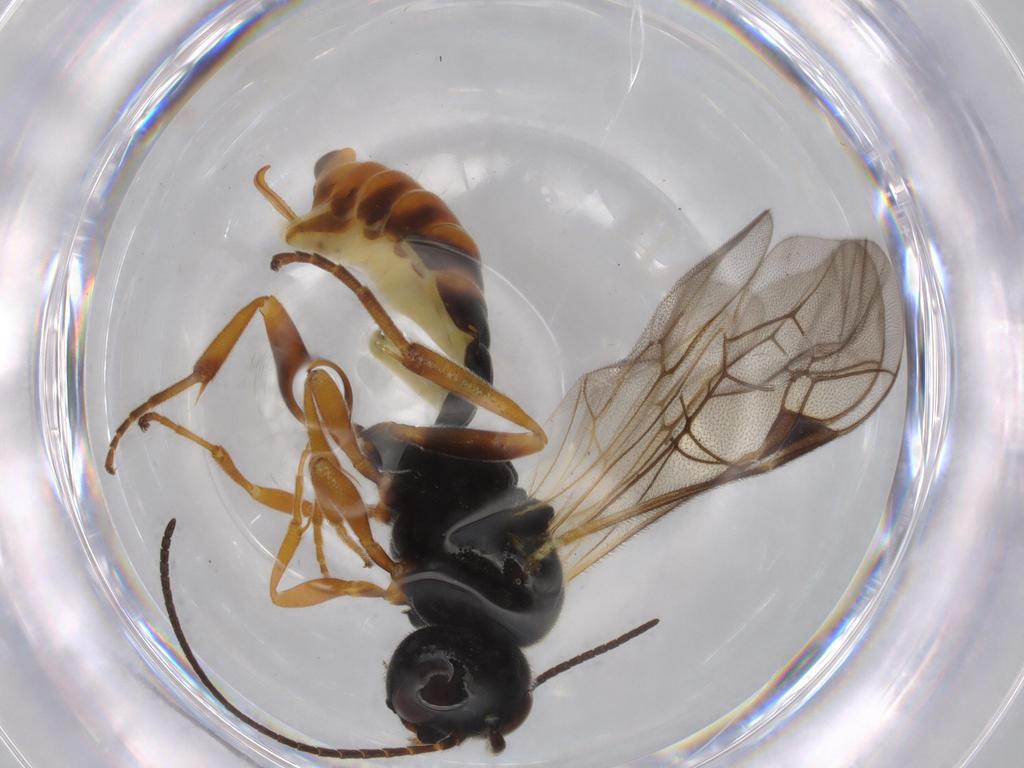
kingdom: Animalia
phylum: Arthropoda
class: Insecta
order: Hymenoptera
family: Ichneumonidae
